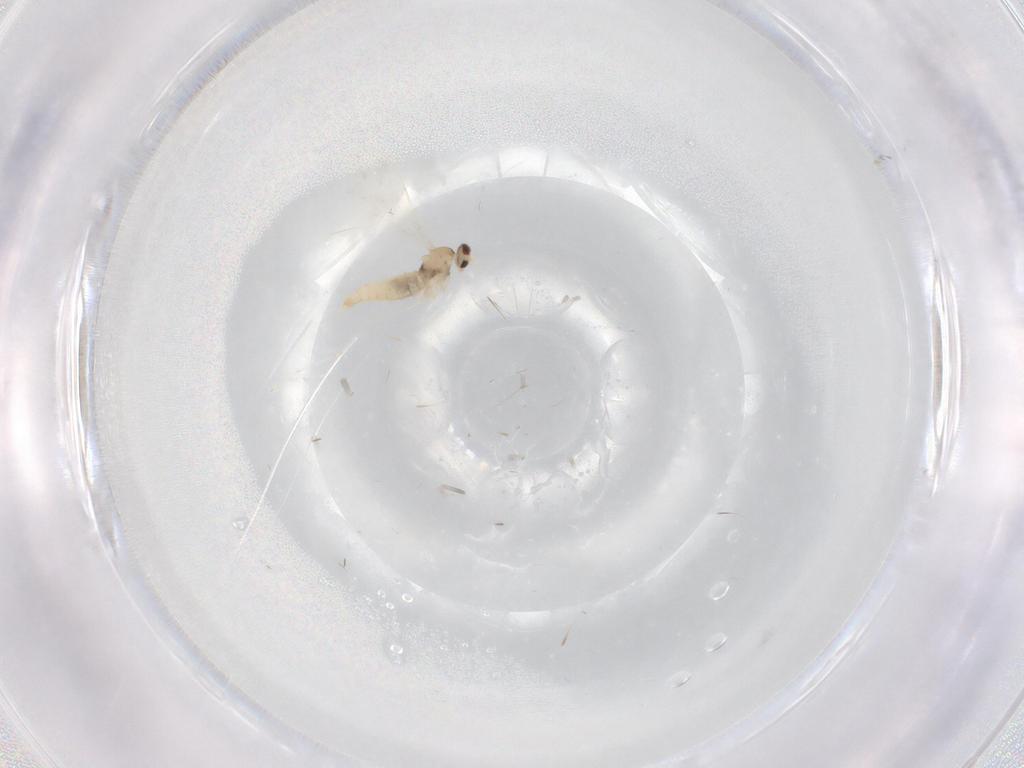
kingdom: Animalia
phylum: Arthropoda
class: Insecta
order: Diptera
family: Cecidomyiidae
